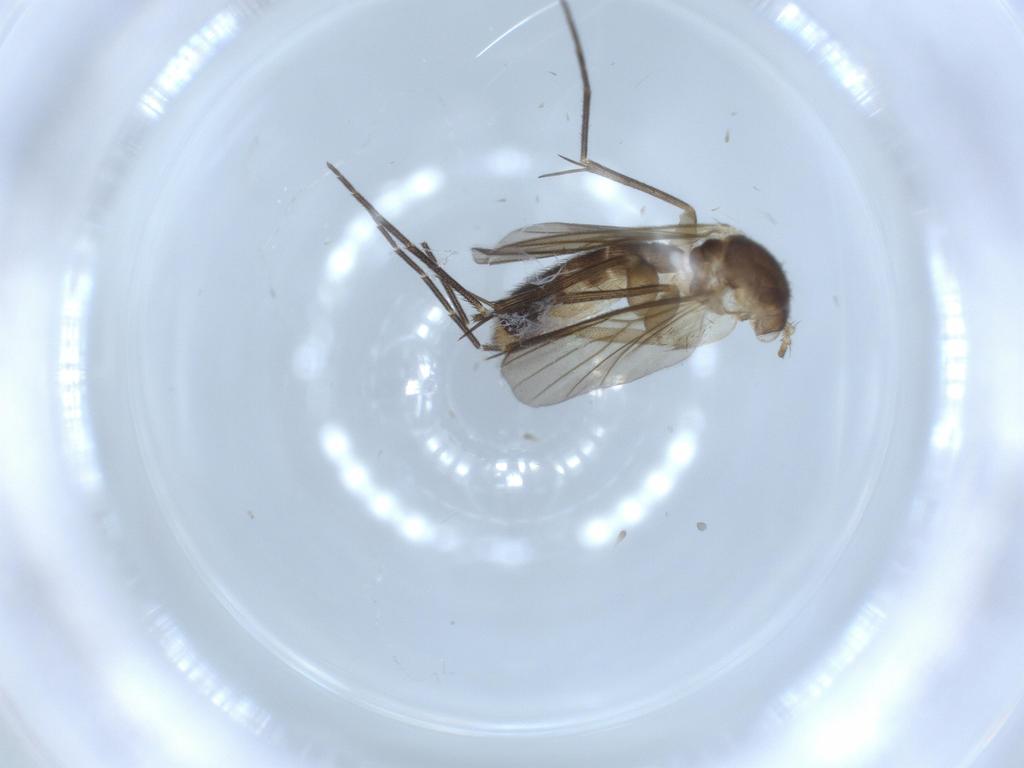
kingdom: Animalia
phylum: Arthropoda
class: Insecta
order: Diptera
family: Mycetophilidae
